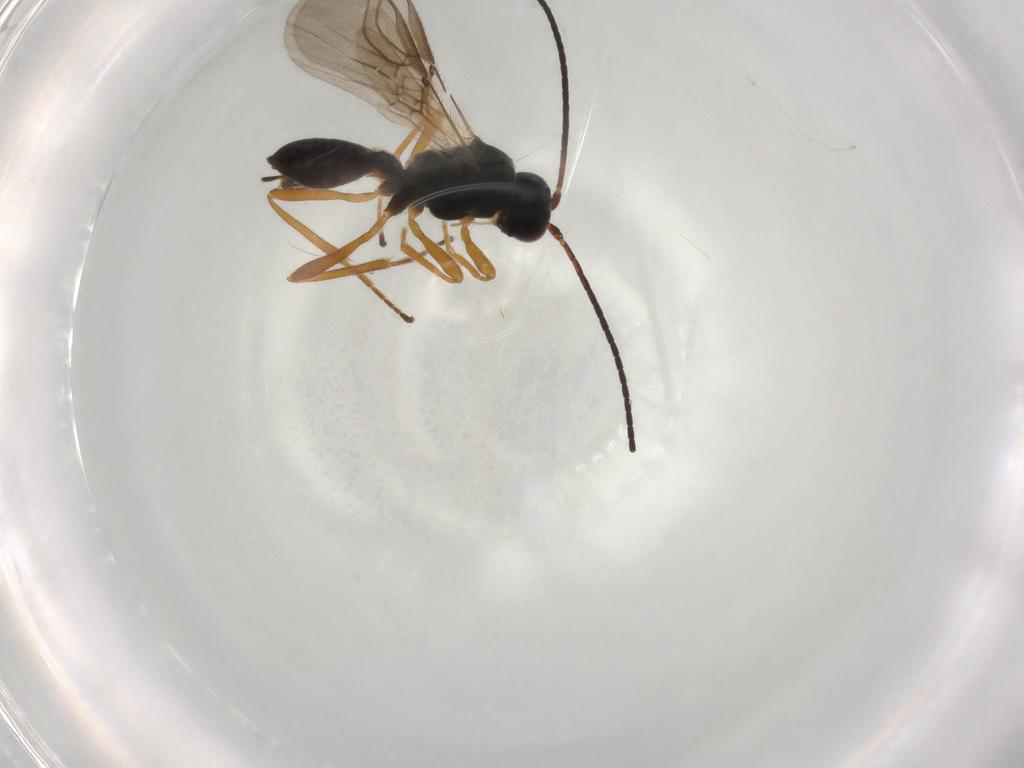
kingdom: Animalia
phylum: Arthropoda
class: Insecta
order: Hymenoptera
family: Braconidae
